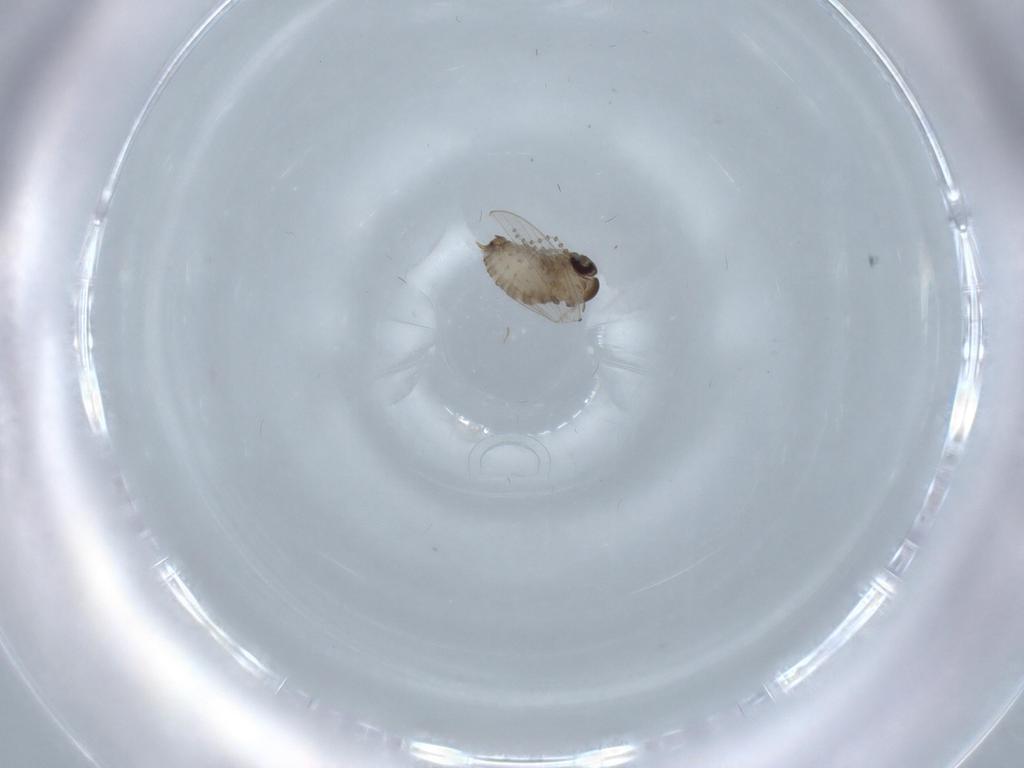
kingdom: Animalia
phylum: Arthropoda
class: Insecta
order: Diptera
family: Psychodidae
